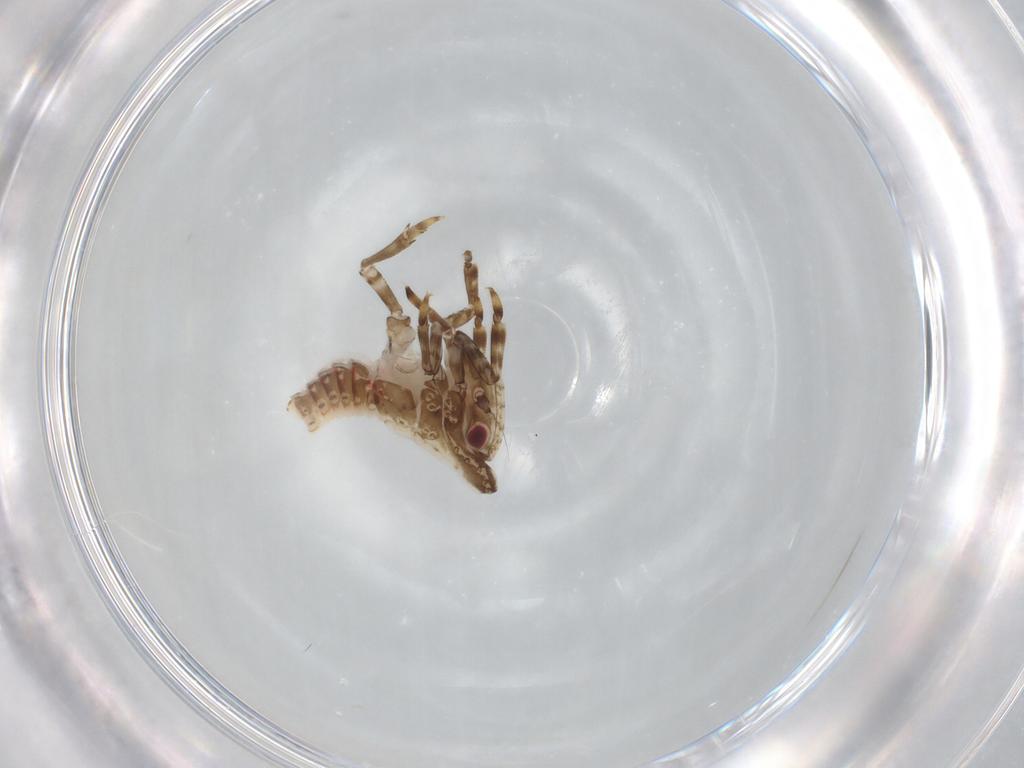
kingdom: Animalia
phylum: Arthropoda
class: Insecta
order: Hemiptera
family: Fulgoroidea_incertae_sedis
